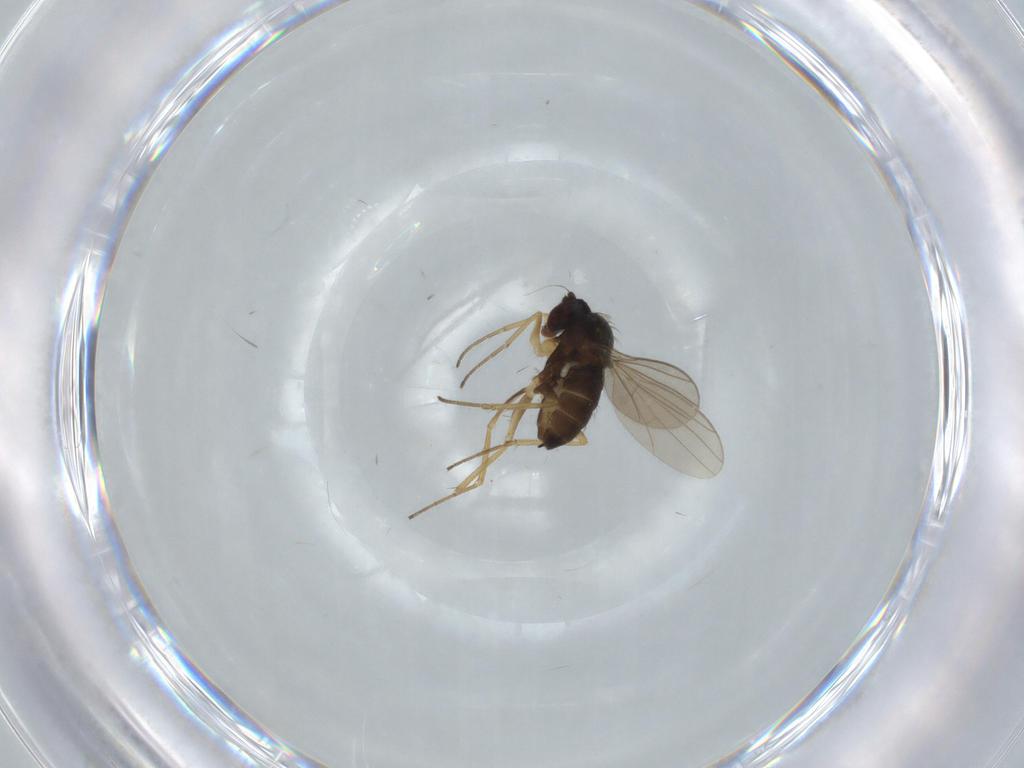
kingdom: Animalia
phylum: Arthropoda
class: Insecta
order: Diptera
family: Dolichopodidae
